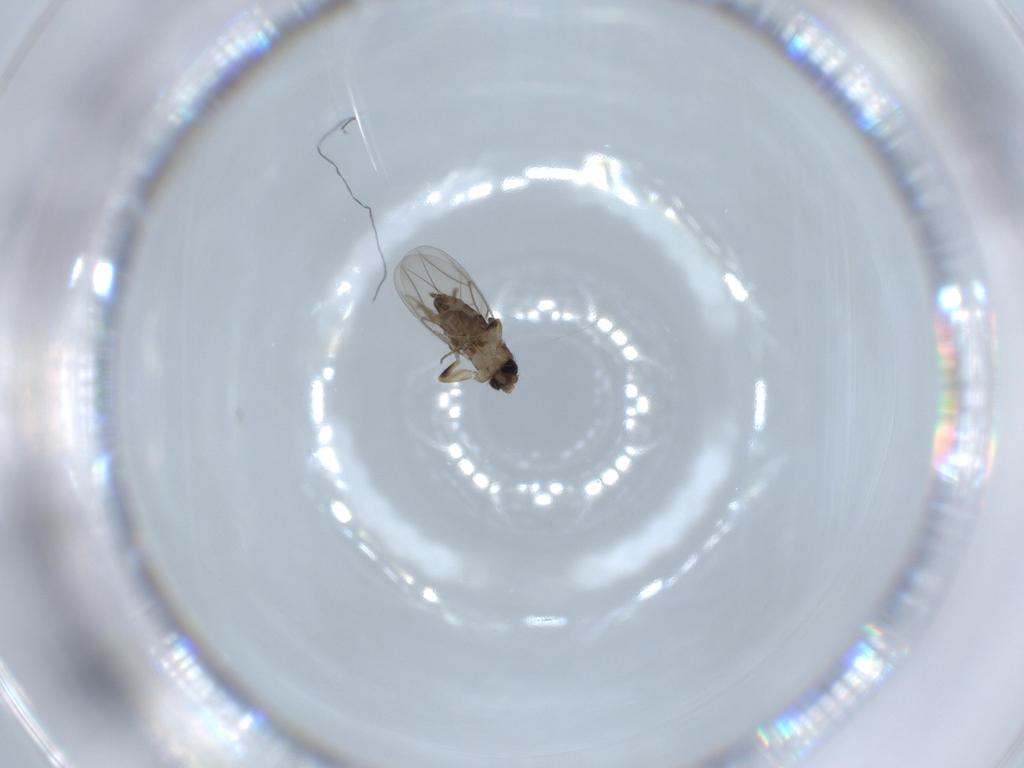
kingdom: Animalia
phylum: Arthropoda
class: Insecta
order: Diptera
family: Phoridae
